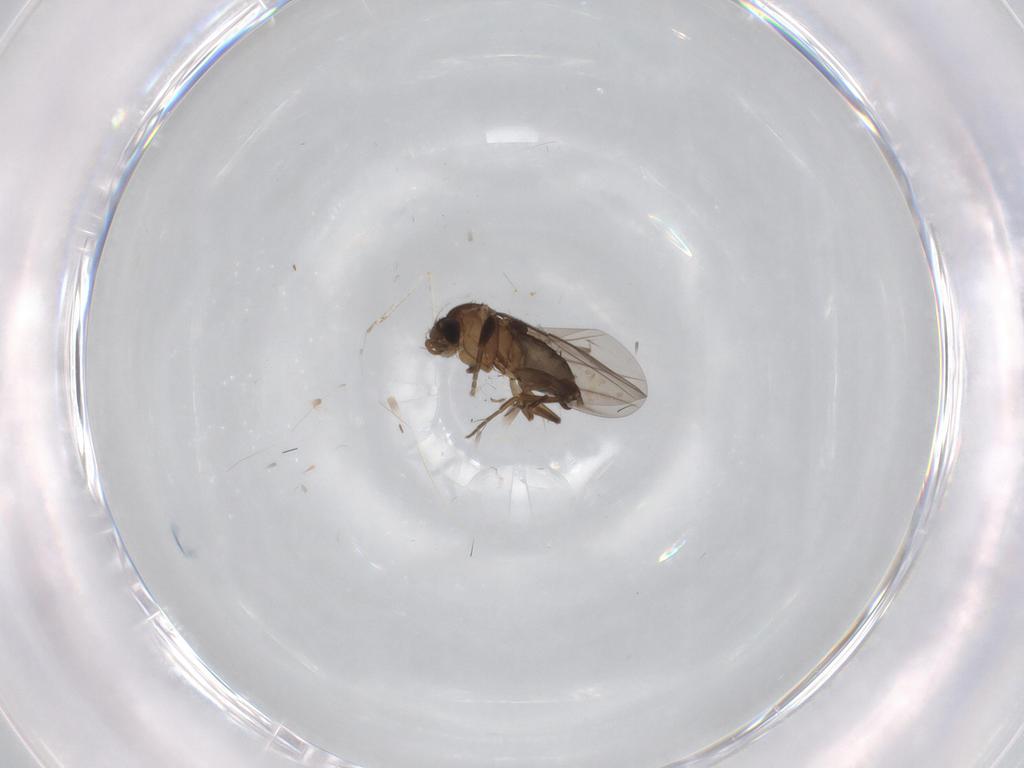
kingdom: Animalia
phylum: Arthropoda
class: Insecta
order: Diptera
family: Phoridae
